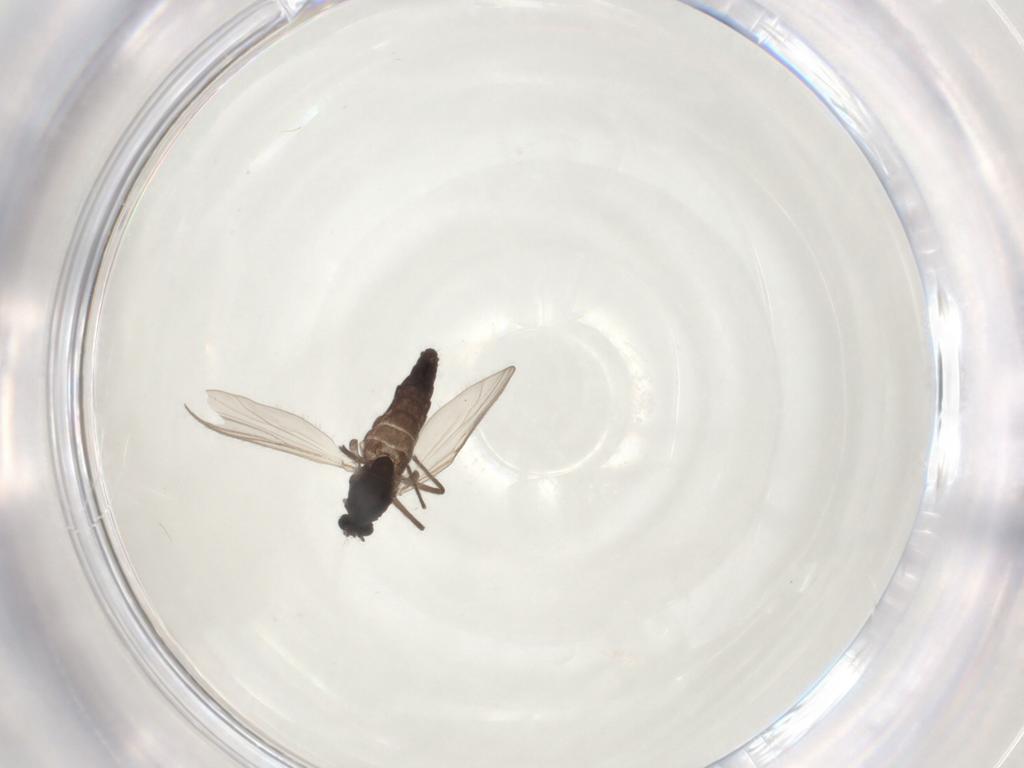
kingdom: Animalia
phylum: Arthropoda
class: Insecta
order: Diptera
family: Chironomidae
